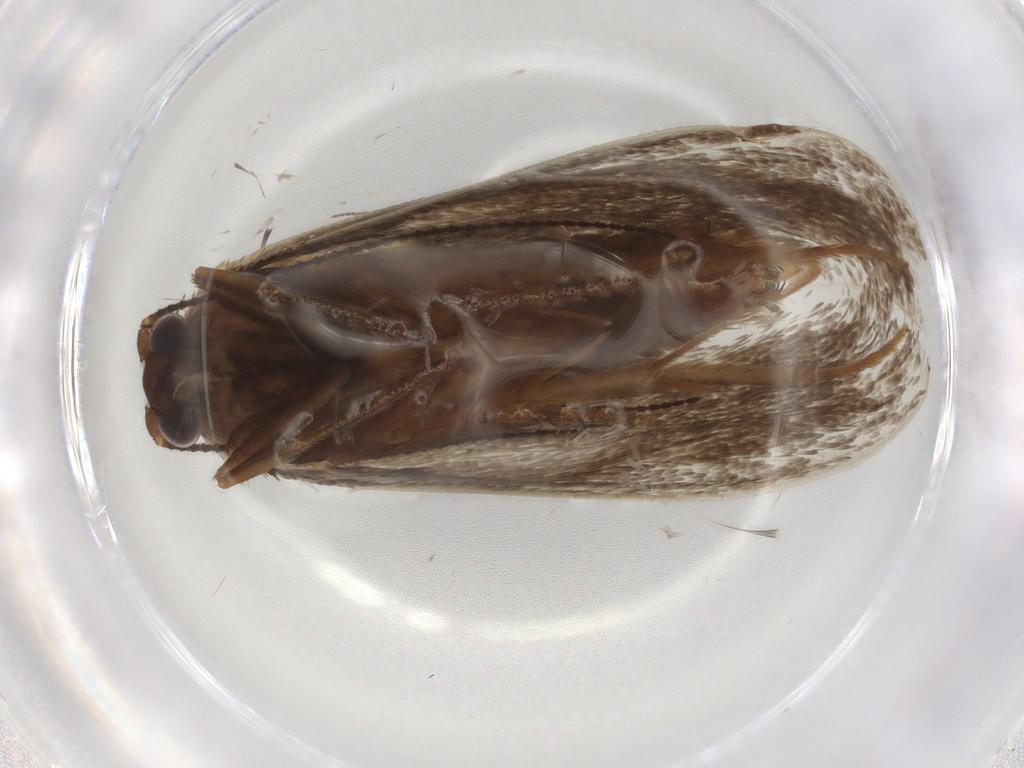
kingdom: Animalia
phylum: Arthropoda
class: Insecta
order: Lepidoptera
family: Eriocottidae
